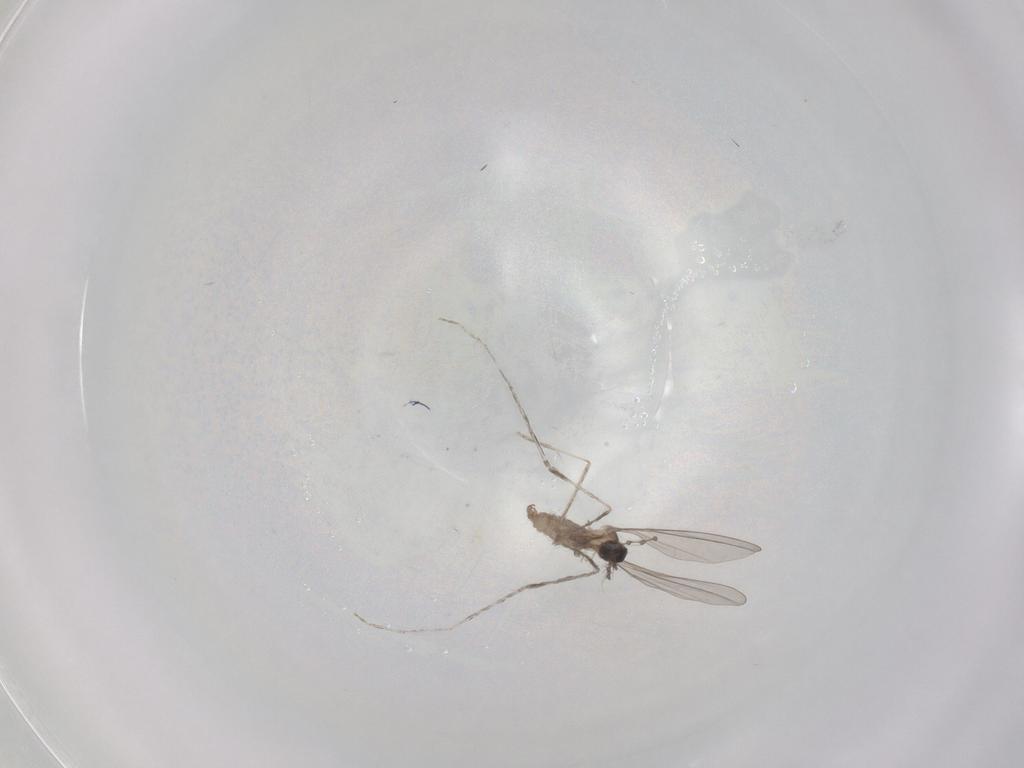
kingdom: Animalia
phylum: Arthropoda
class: Insecta
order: Diptera
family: Cecidomyiidae
